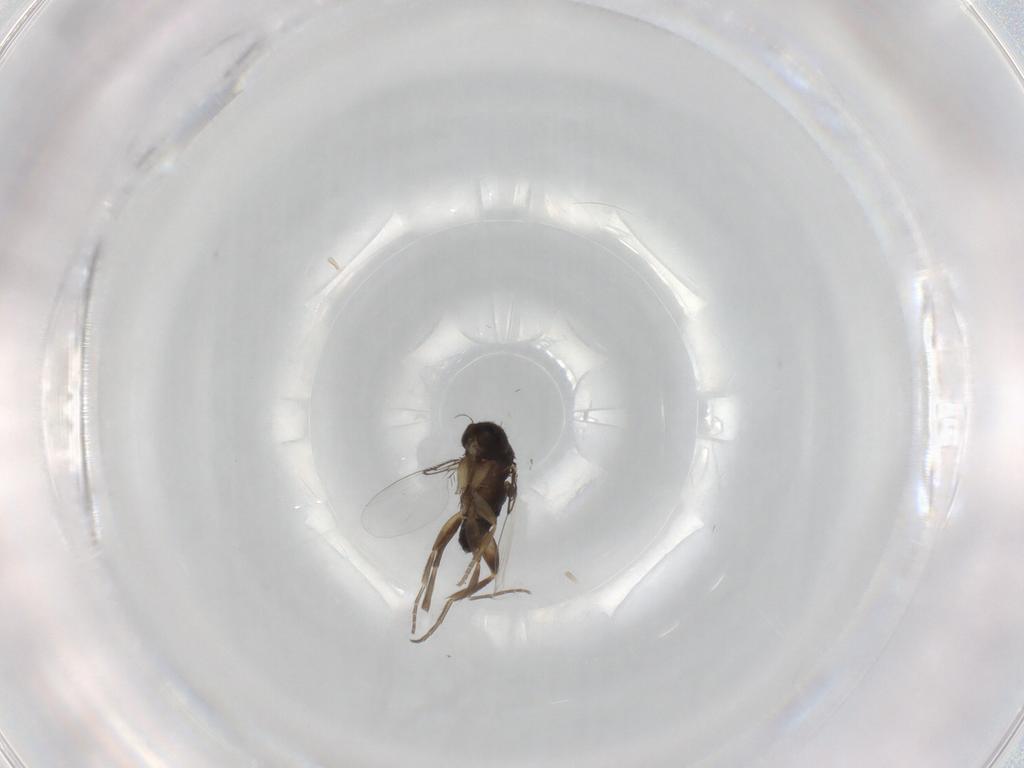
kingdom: Animalia
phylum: Arthropoda
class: Insecta
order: Diptera
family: Phoridae
